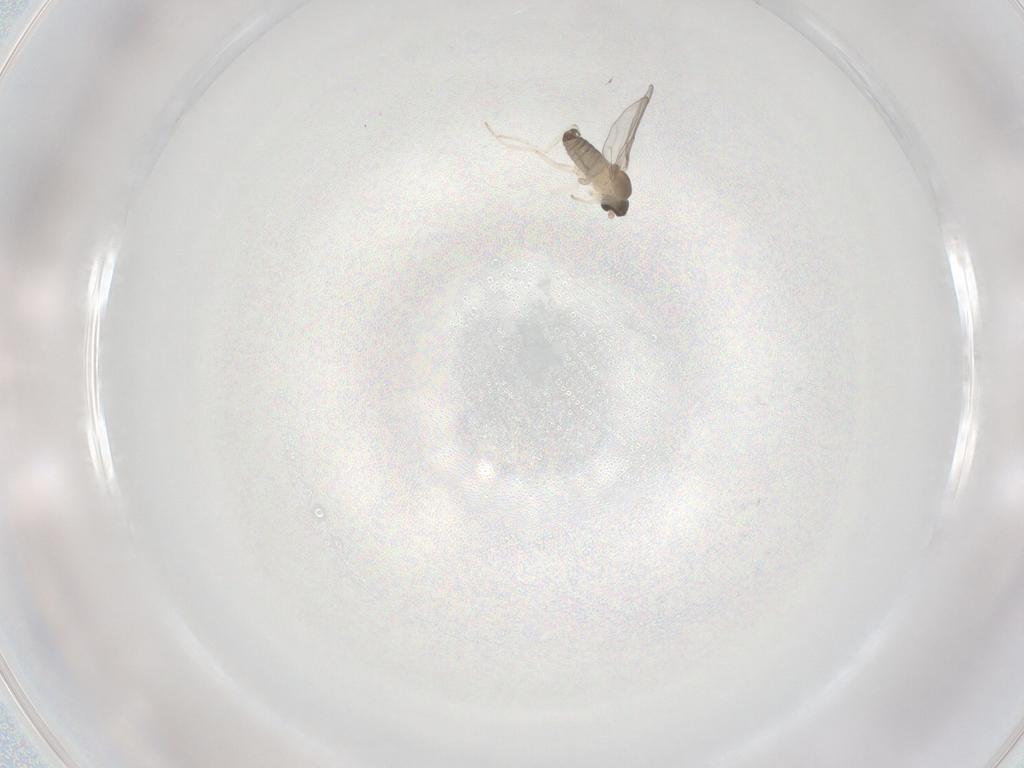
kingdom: Animalia
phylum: Arthropoda
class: Insecta
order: Diptera
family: Cecidomyiidae
